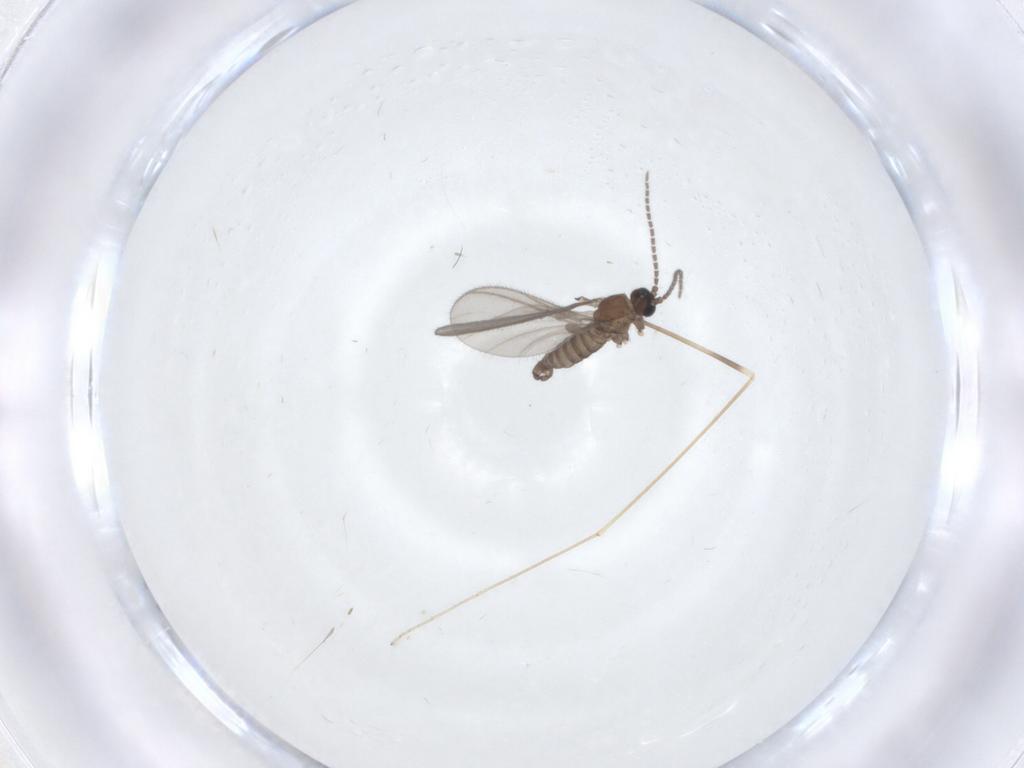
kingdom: Animalia
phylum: Arthropoda
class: Insecta
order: Diptera
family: Sciaridae
